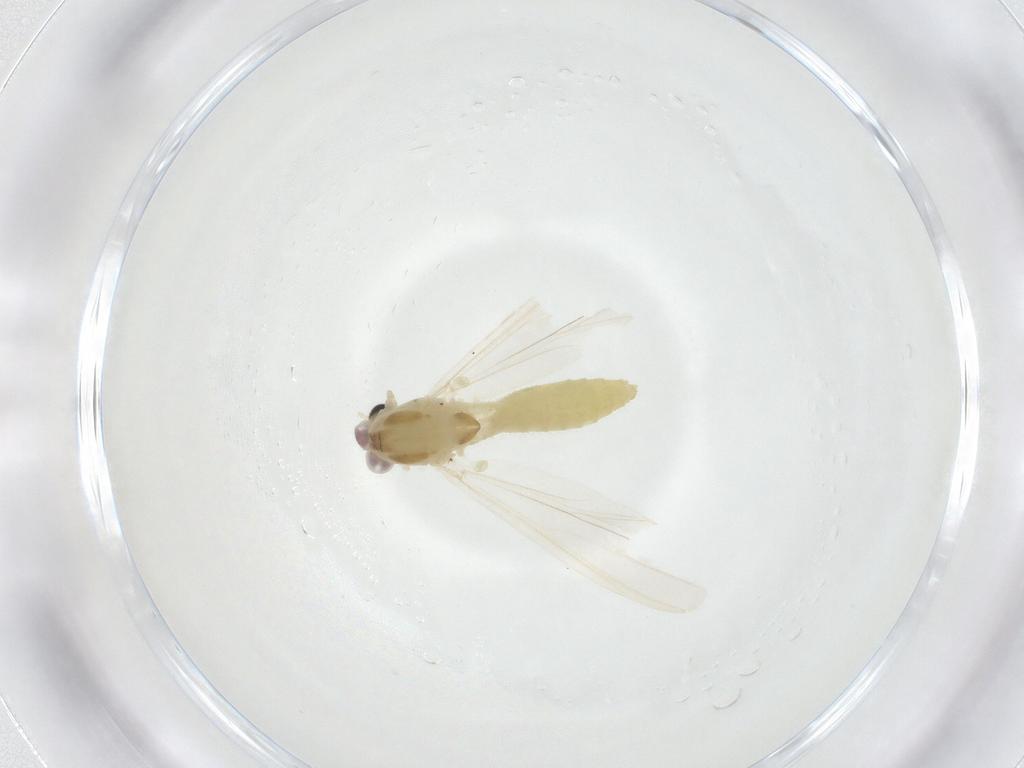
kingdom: Animalia
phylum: Arthropoda
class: Insecta
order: Diptera
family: Chironomidae
